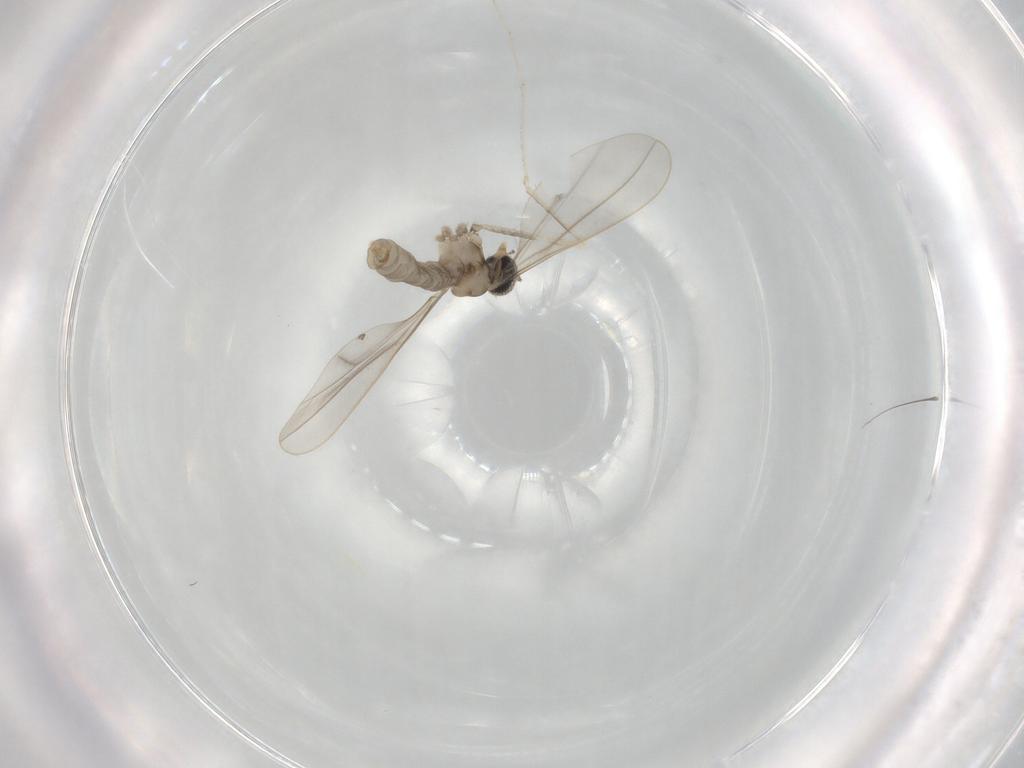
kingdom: Animalia
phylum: Arthropoda
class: Insecta
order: Diptera
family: Cecidomyiidae
